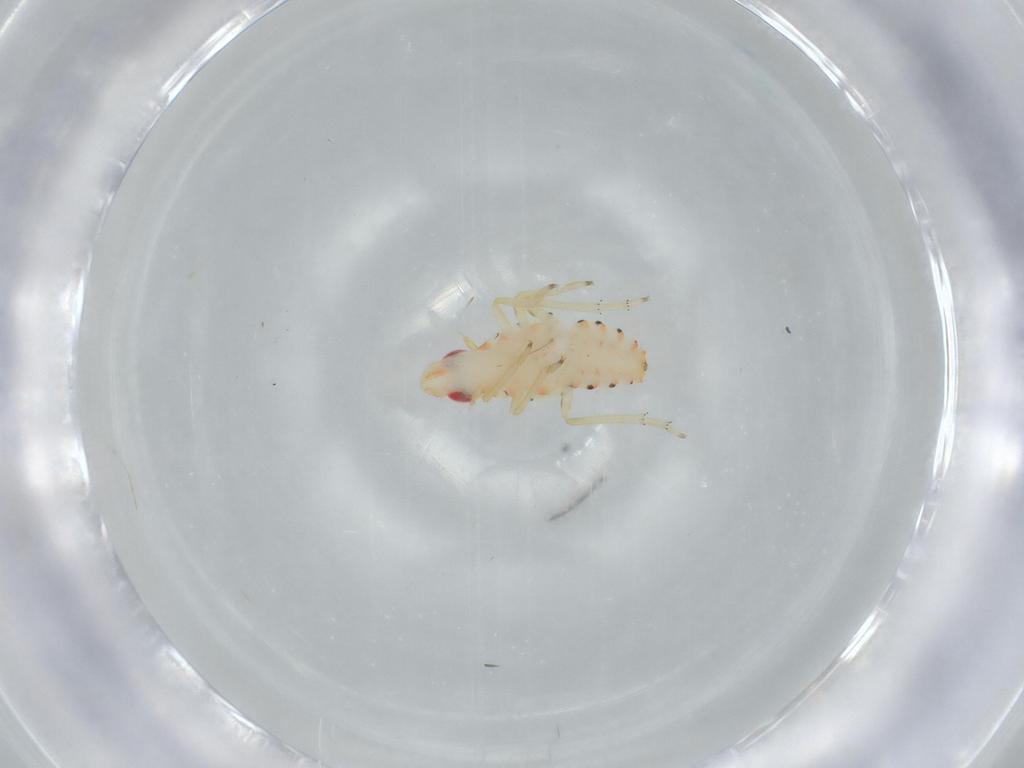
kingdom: Animalia
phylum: Arthropoda
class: Insecta
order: Hemiptera
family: Tropiduchidae
